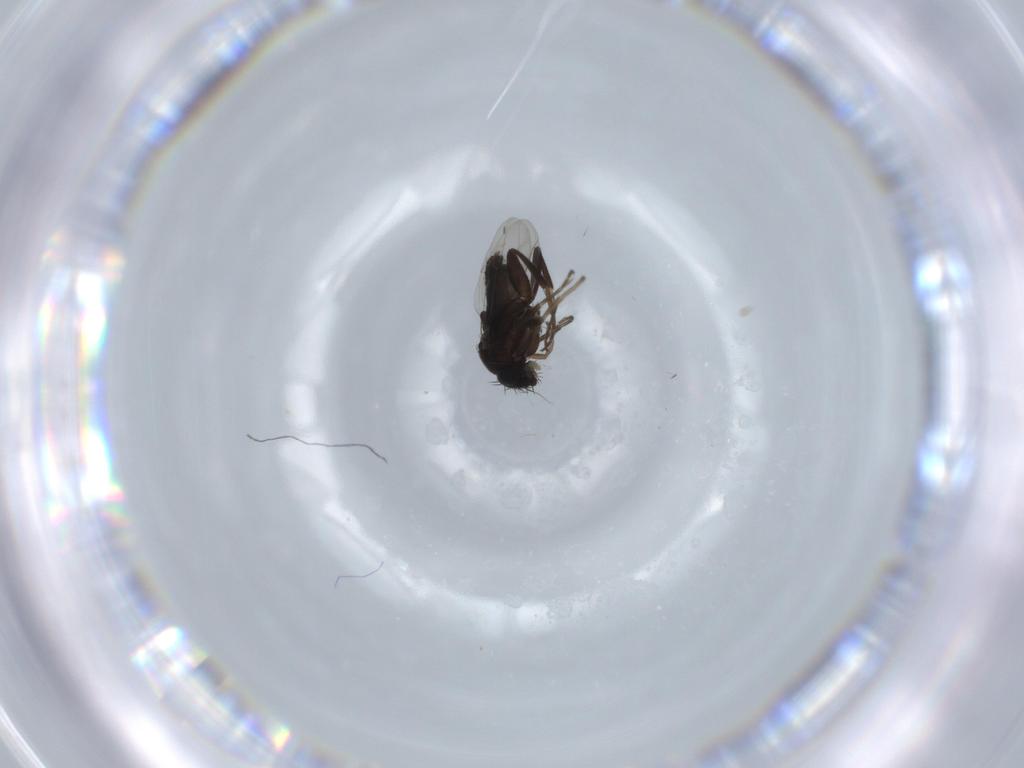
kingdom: Animalia
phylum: Arthropoda
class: Insecta
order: Diptera
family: Phoridae
